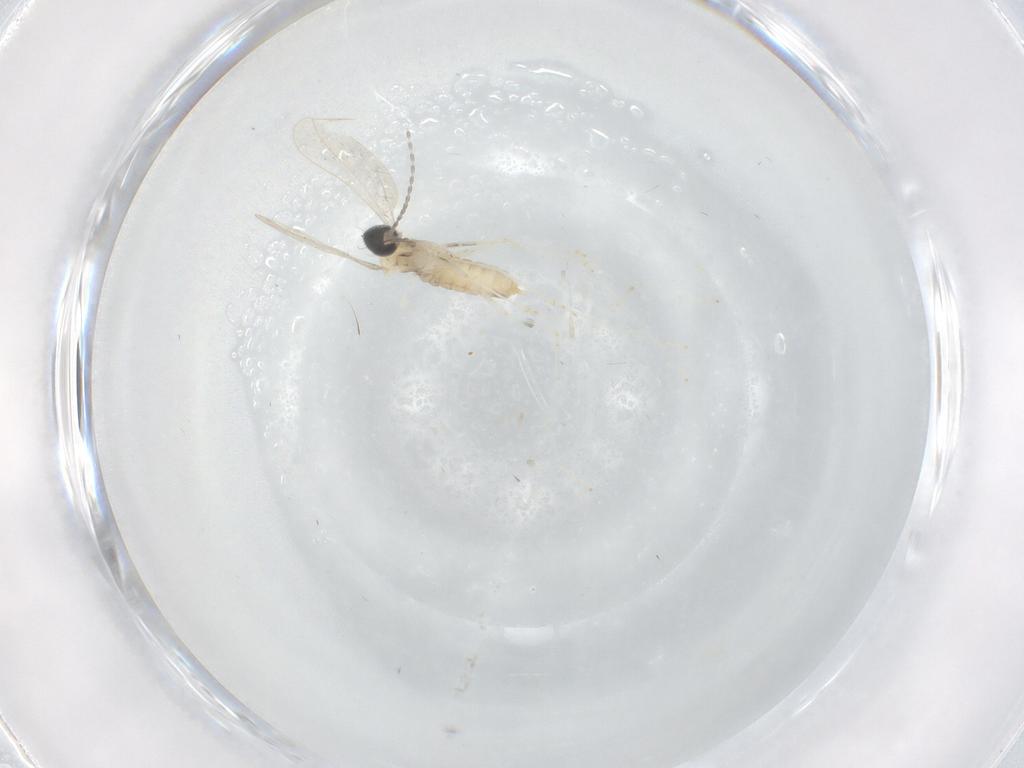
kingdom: Animalia
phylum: Arthropoda
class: Insecta
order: Diptera
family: Cecidomyiidae
